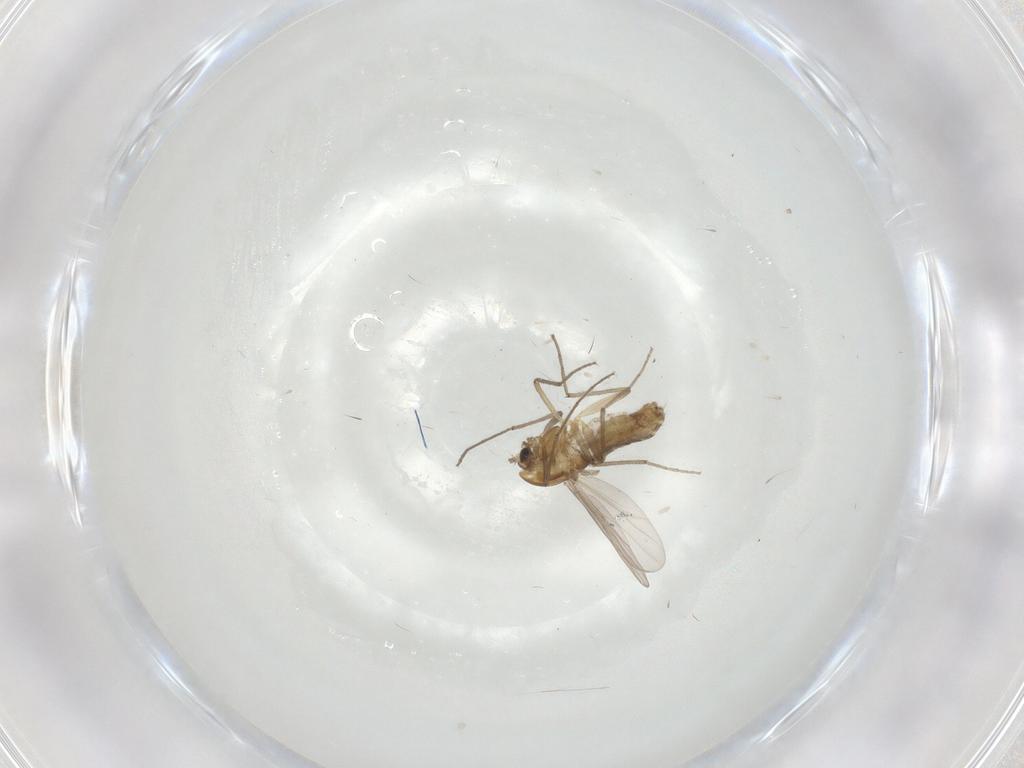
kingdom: Animalia
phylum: Arthropoda
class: Insecta
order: Diptera
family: Chironomidae
